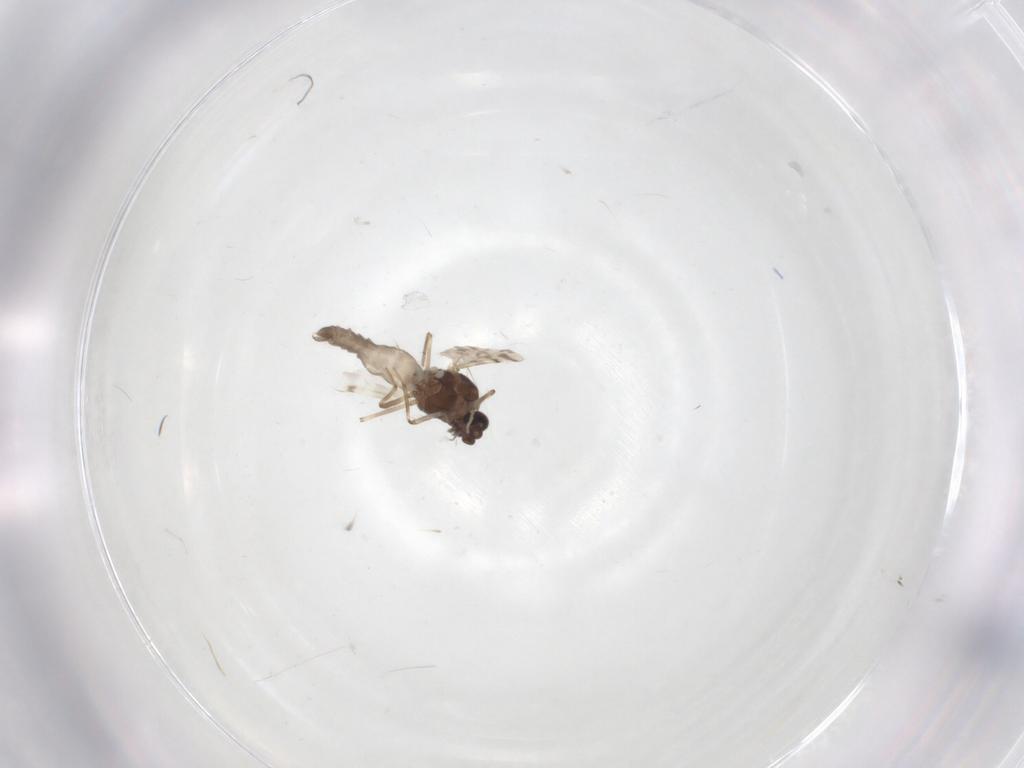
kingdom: Animalia
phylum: Arthropoda
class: Insecta
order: Diptera
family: Ceratopogonidae
